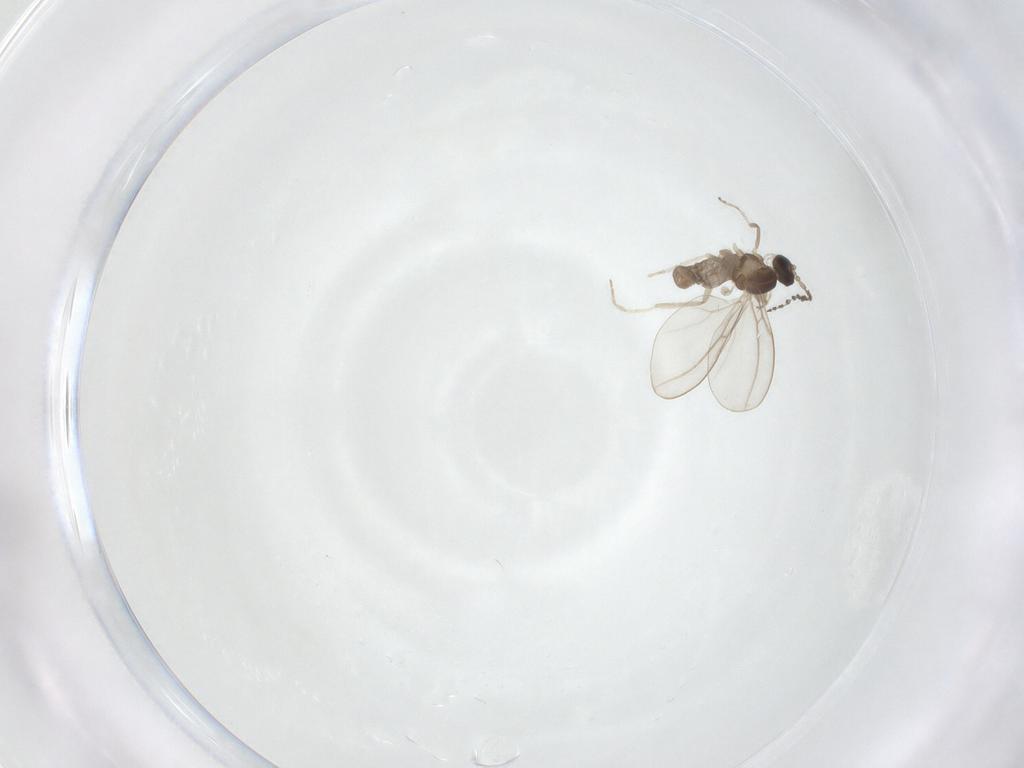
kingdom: Animalia
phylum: Arthropoda
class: Insecta
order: Diptera
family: Cecidomyiidae
